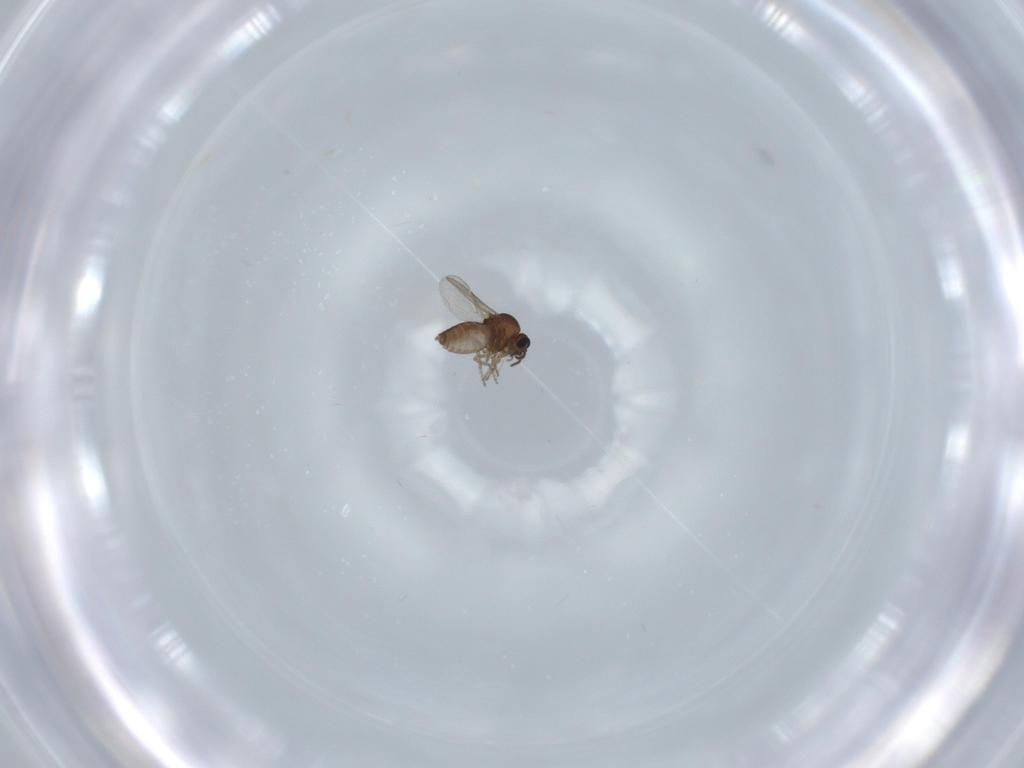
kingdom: Animalia
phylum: Arthropoda
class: Insecta
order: Diptera
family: Ceratopogonidae
